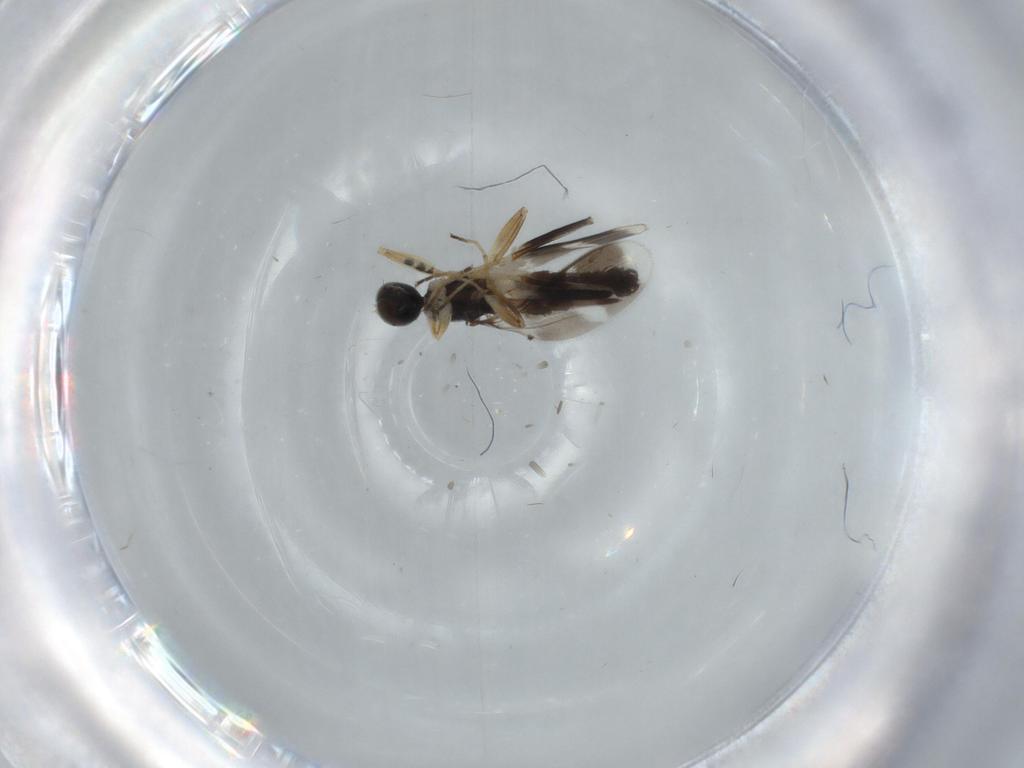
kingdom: Animalia
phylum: Arthropoda
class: Insecta
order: Diptera
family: Hybotidae
